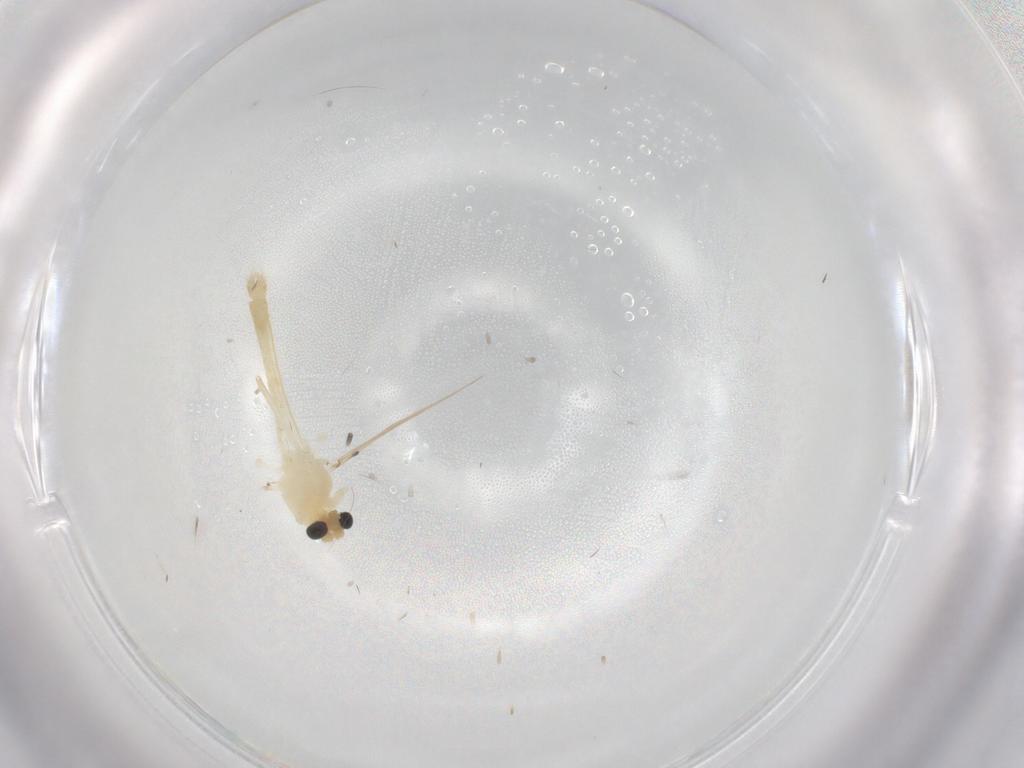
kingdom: Animalia
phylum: Arthropoda
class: Insecta
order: Diptera
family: Chironomidae
